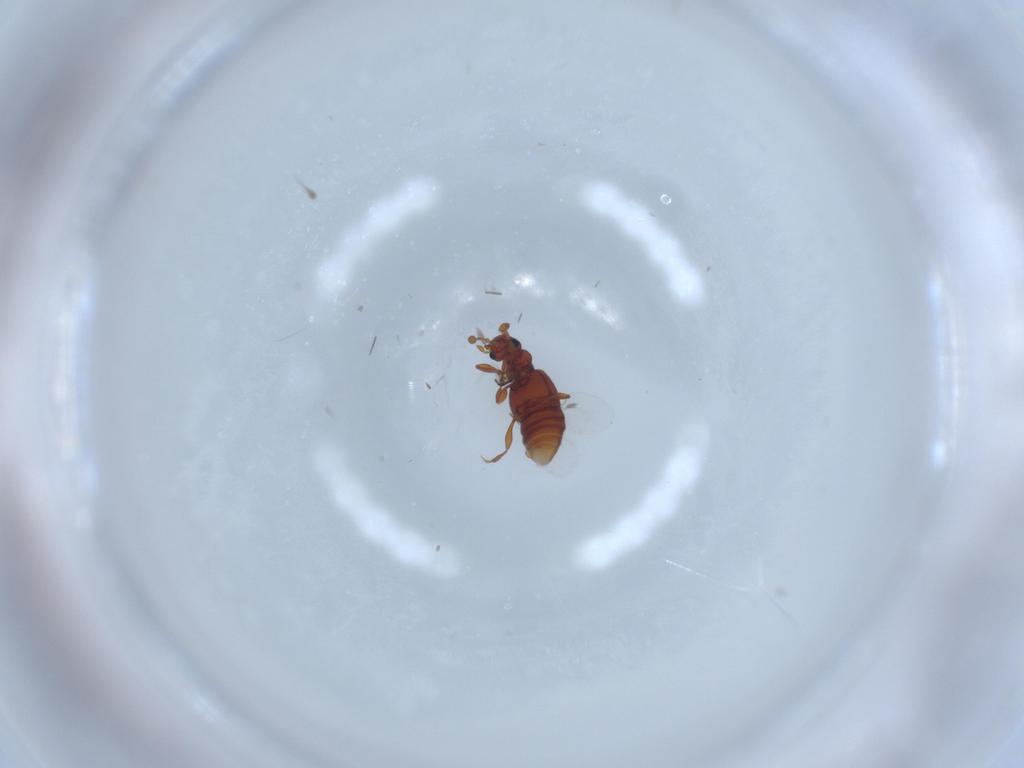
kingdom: Animalia
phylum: Arthropoda
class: Insecta
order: Coleoptera
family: Staphylinidae
